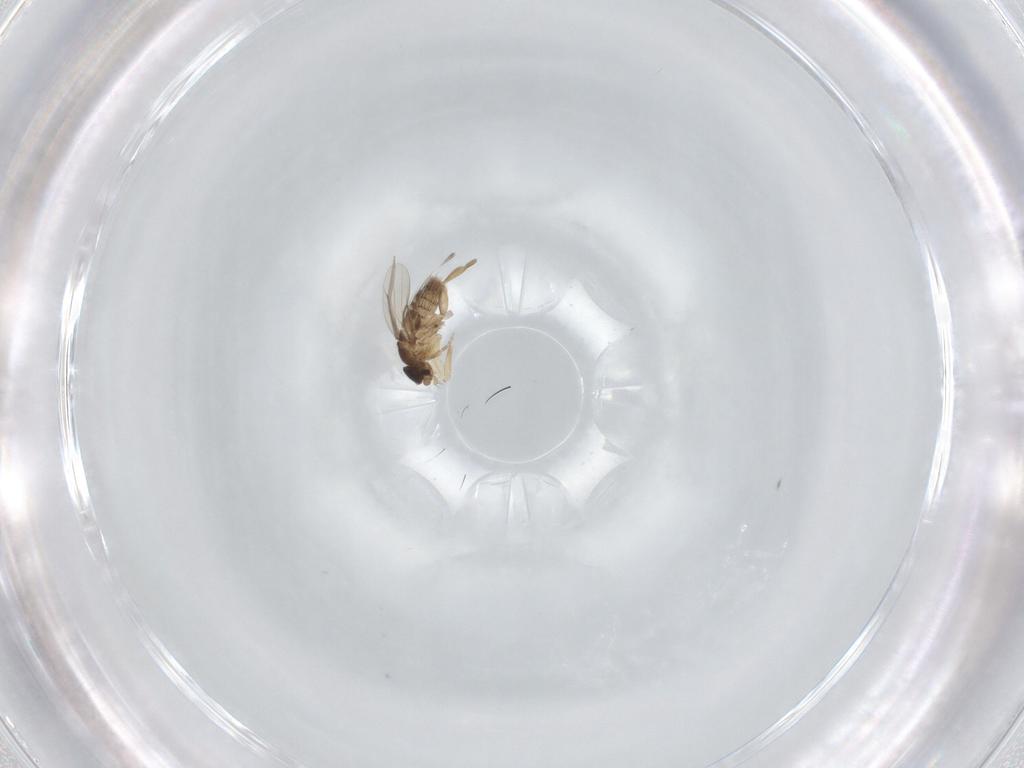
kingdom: Animalia
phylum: Arthropoda
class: Insecta
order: Diptera
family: Phoridae
